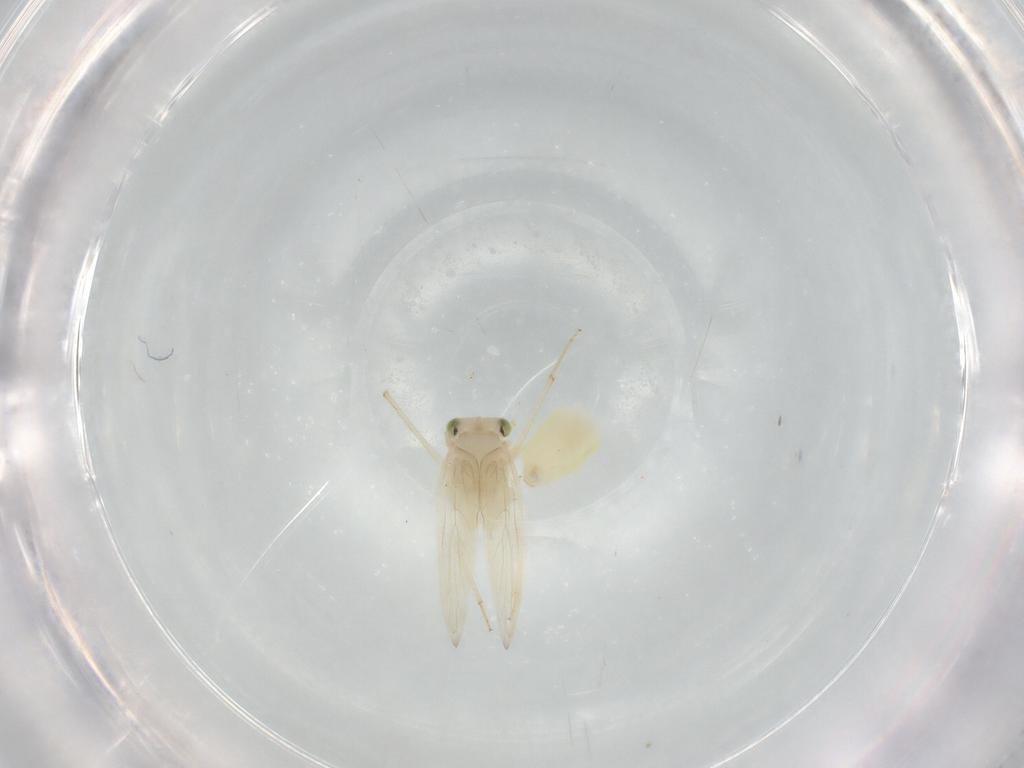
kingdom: Animalia
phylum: Arthropoda
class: Insecta
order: Psocodea
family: Lepidopsocidae
